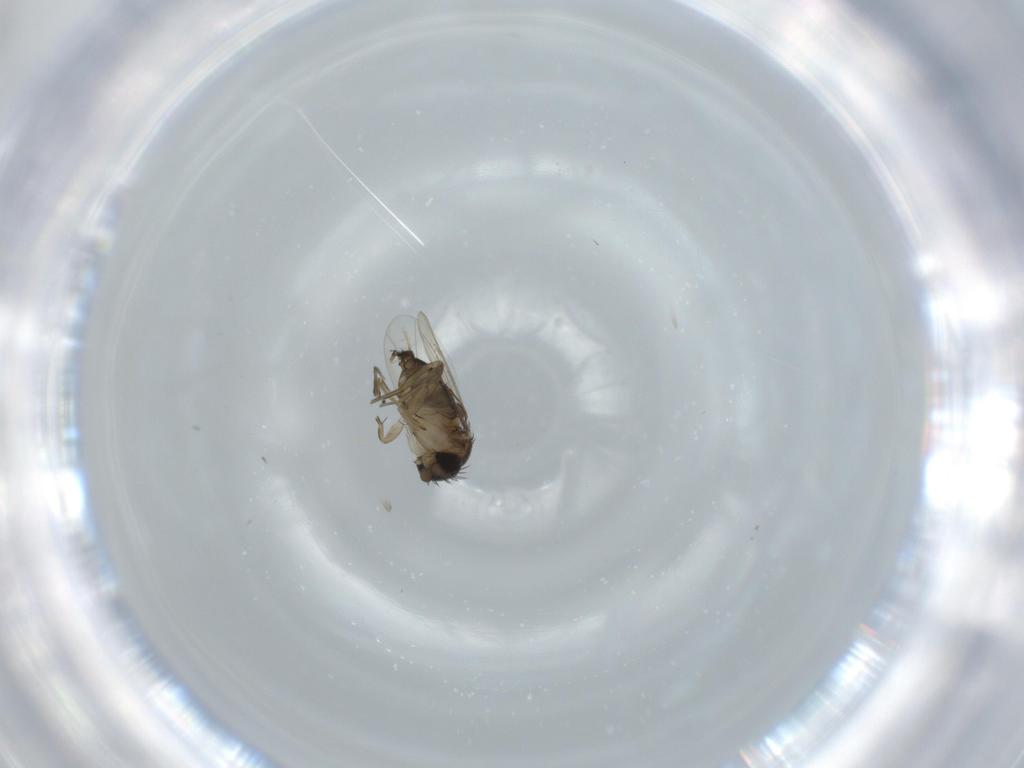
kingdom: Animalia
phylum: Arthropoda
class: Insecta
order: Diptera
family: Phoridae
